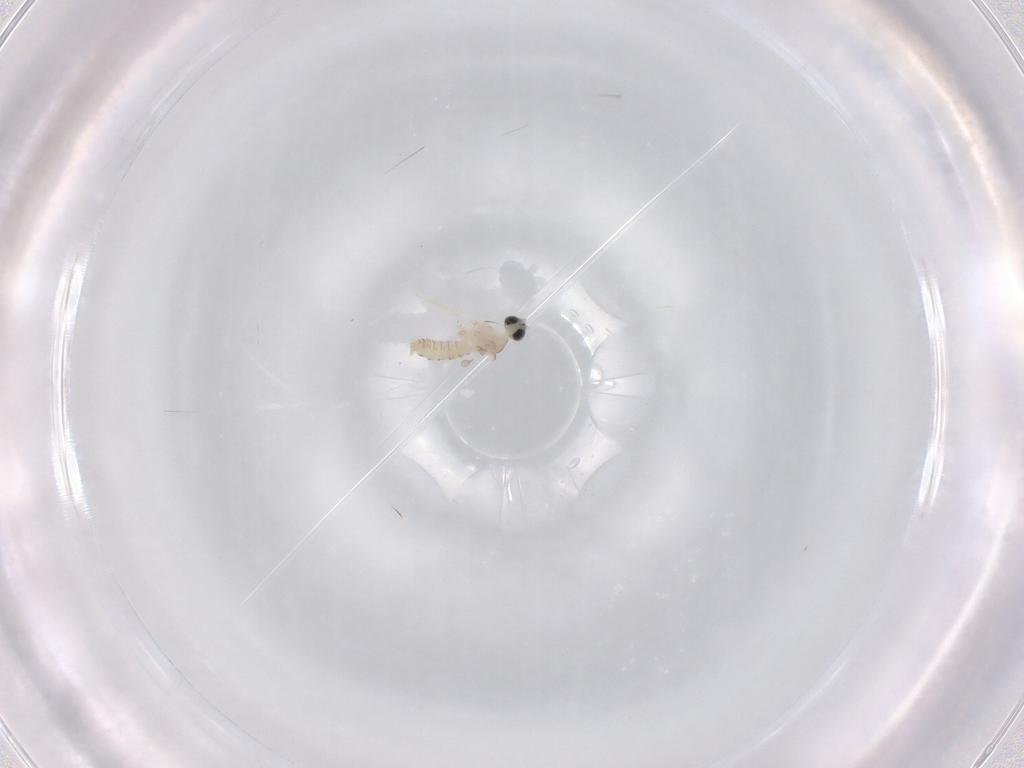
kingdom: Animalia
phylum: Arthropoda
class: Insecta
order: Diptera
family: Cecidomyiidae
